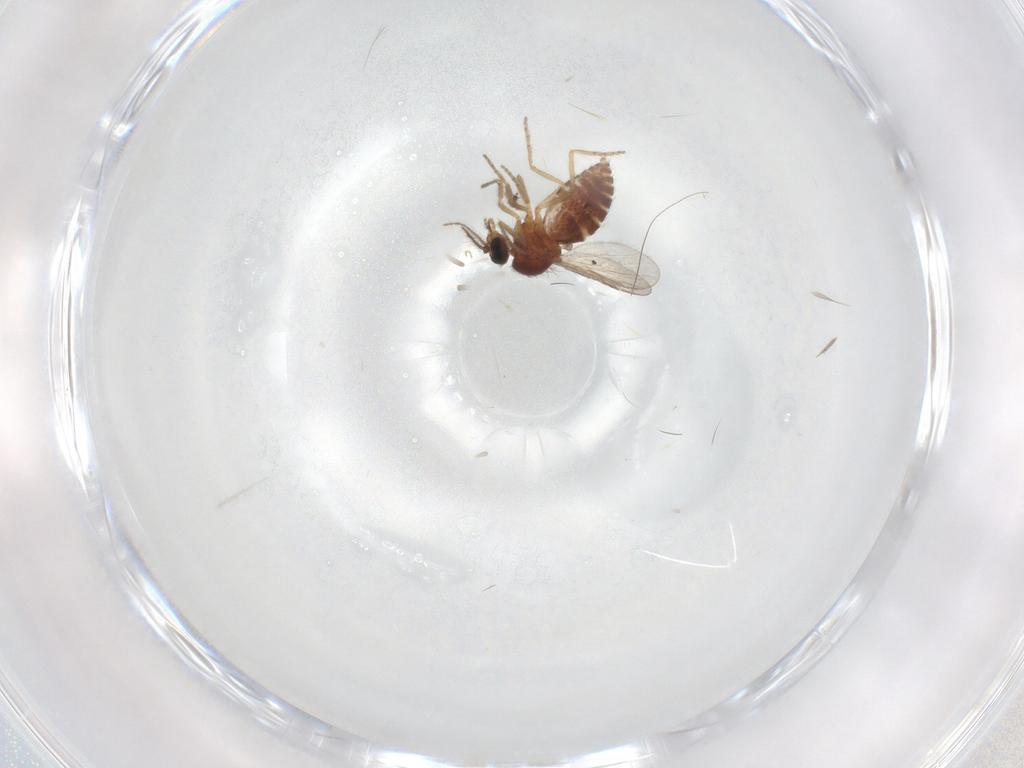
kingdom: Animalia
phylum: Arthropoda
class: Insecta
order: Diptera
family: Ceratopogonidae
